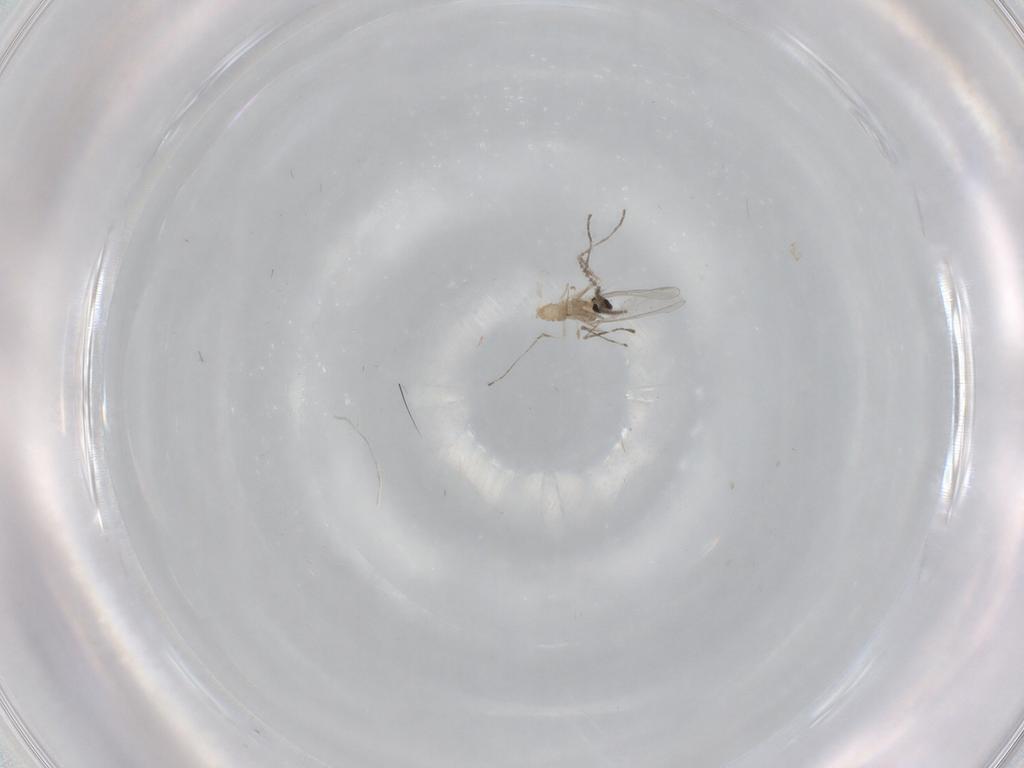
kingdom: Animalia
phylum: Arthropoda
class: Insecta
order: Diptera
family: Cecidomyiidae
